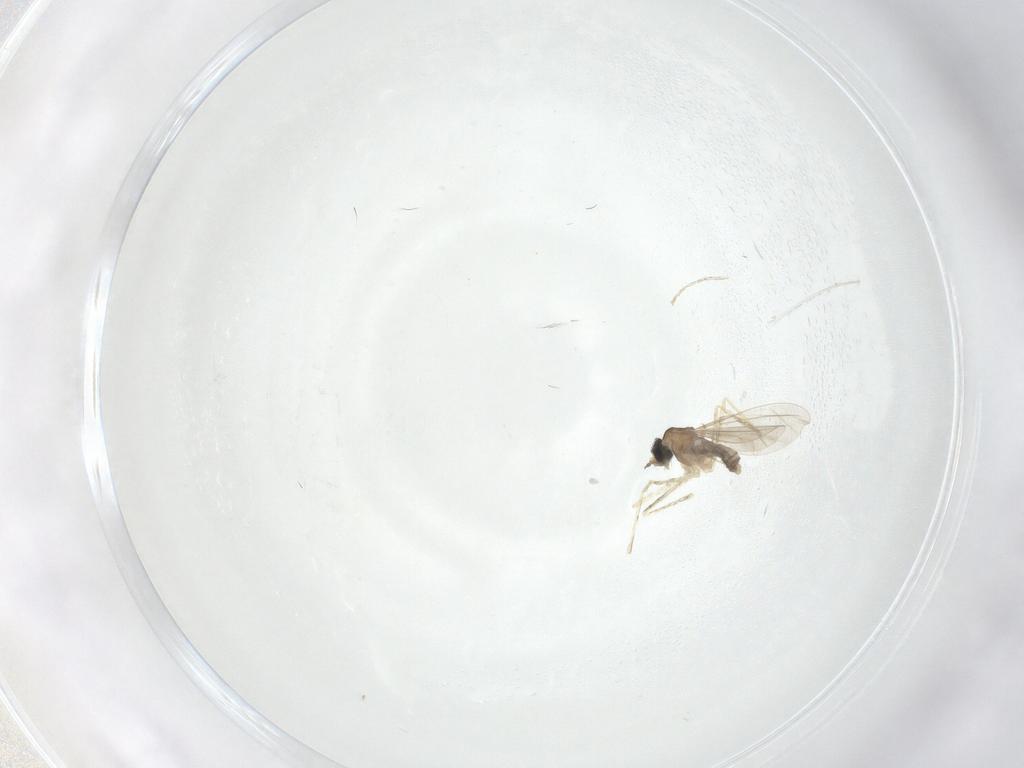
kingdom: Animalia
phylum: Arthropoda
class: Insecta
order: Diptera
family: Cecidomyiidae
